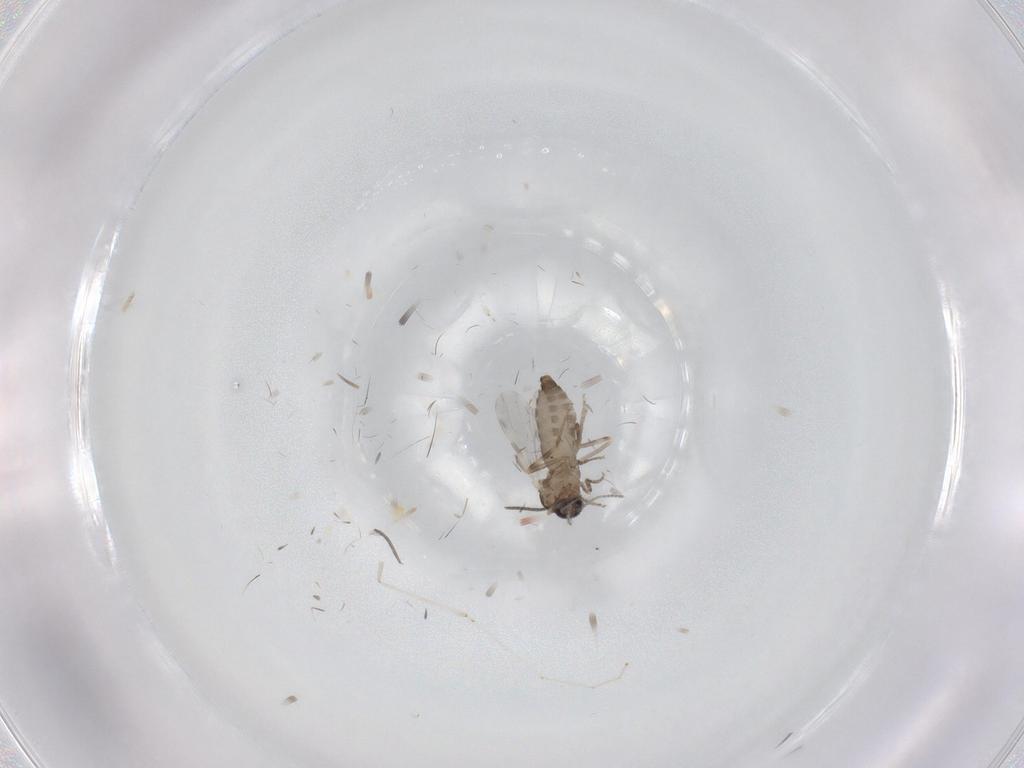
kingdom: Animalia
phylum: Arthropoda
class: Insecta
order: Diptera
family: Ceratopogonidae
